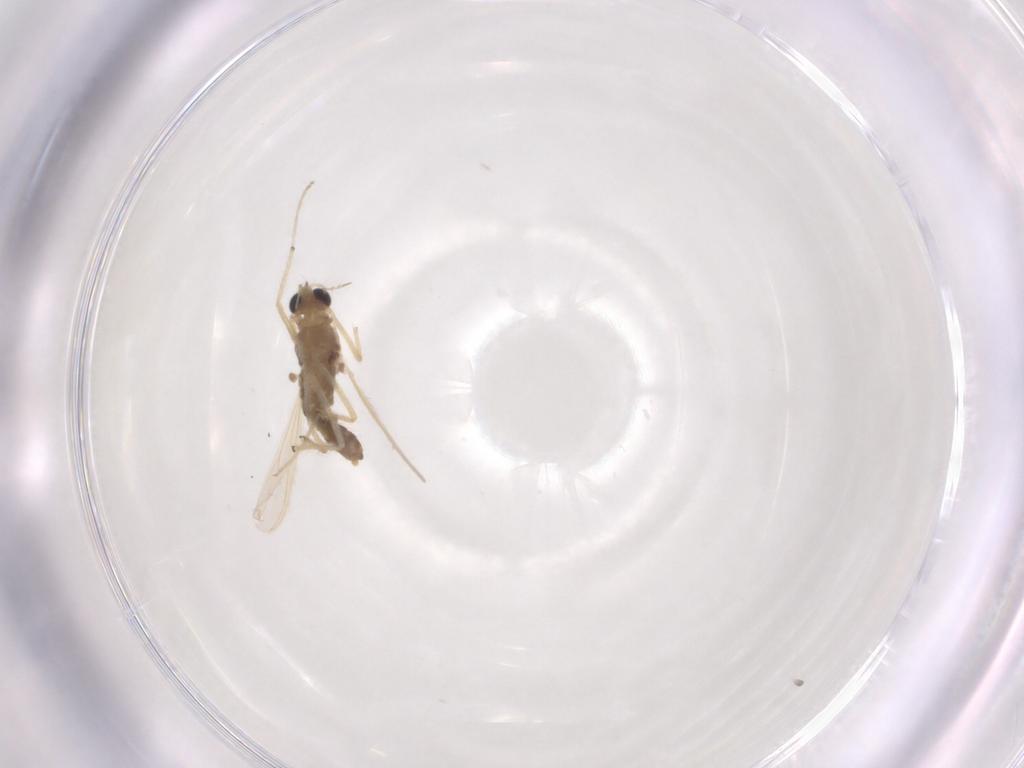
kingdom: Animalia
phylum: Arthropoda
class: Insecta
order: Diptera
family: Chironomidae
